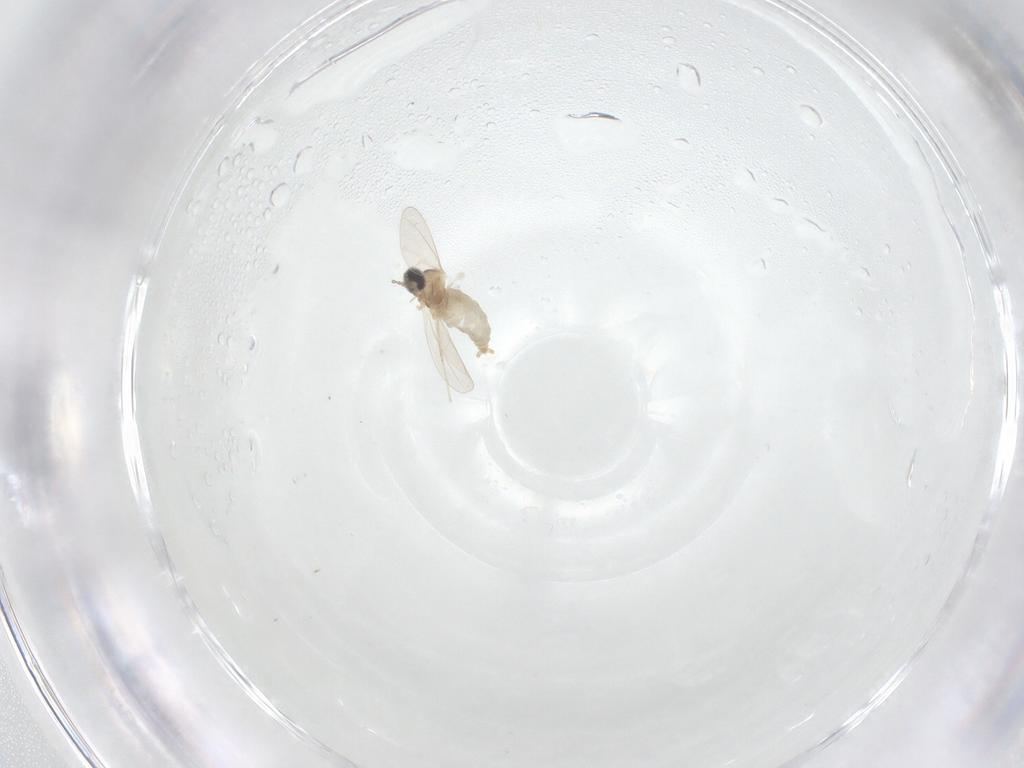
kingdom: Animalia
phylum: Arthropoda
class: Insecta
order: Diptera
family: Cecidomyiidae
